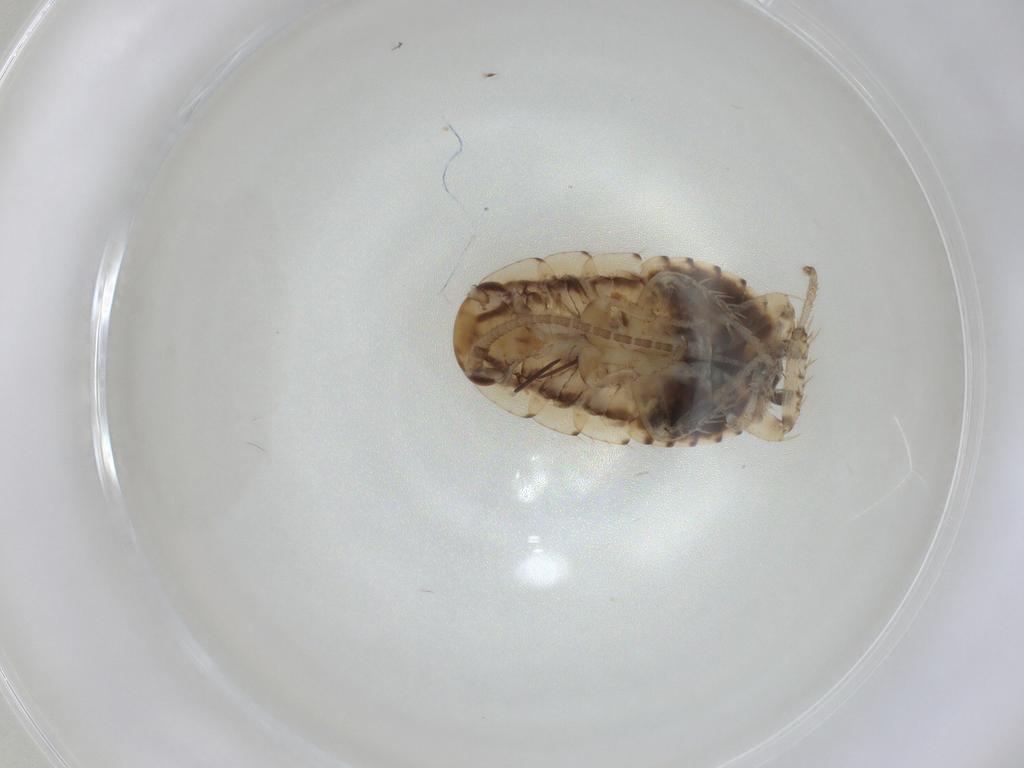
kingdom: Animalia
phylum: Arthropoda
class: Insecta
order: Blattodea
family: Blaberidae
